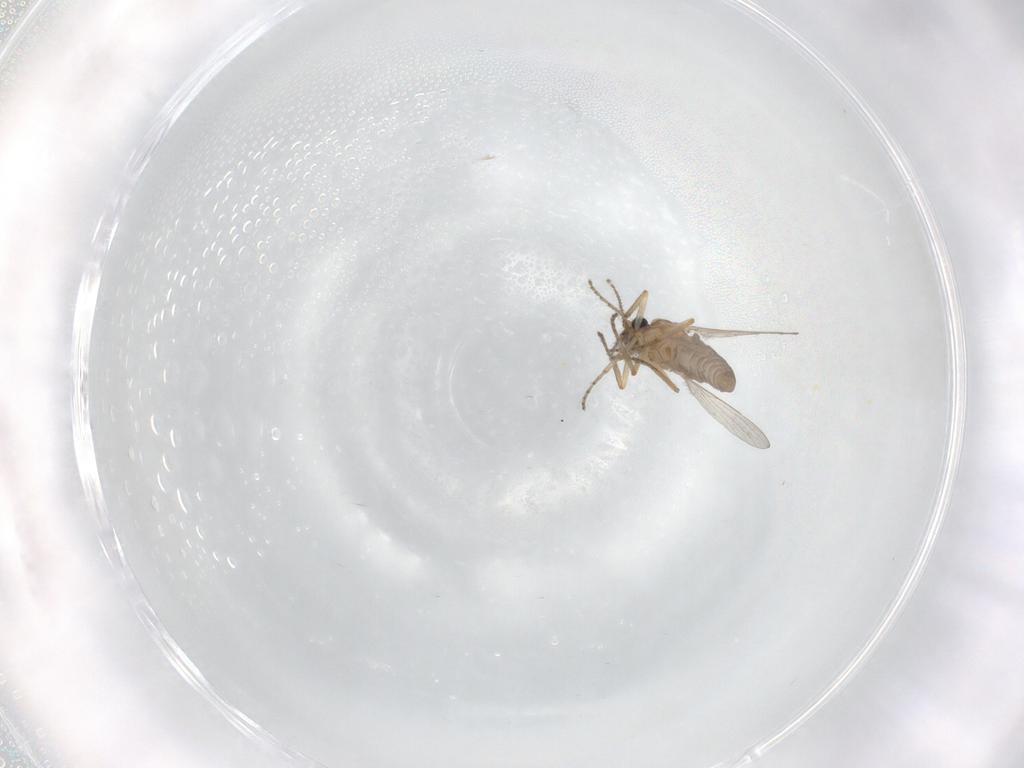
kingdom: Animalia
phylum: Arthropoda
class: Insecta
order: Diptera
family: Ceratopogonidae
